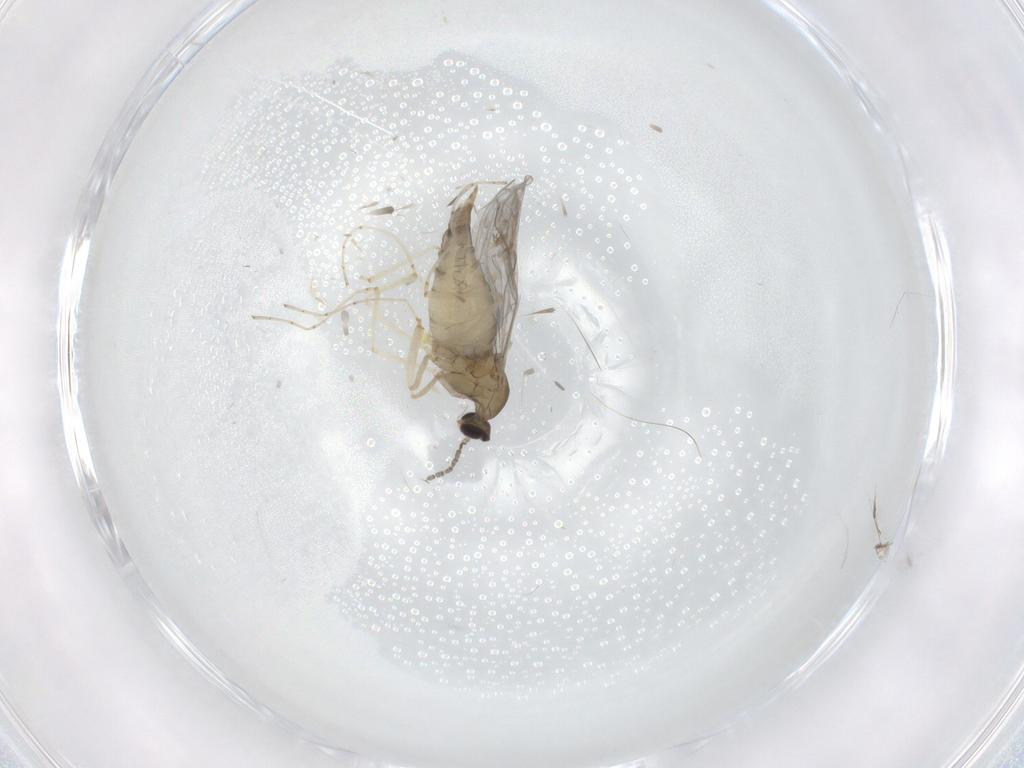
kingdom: Animalia
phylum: Arthropoda
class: Insecta
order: Diptera
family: Cecidomyiidae
